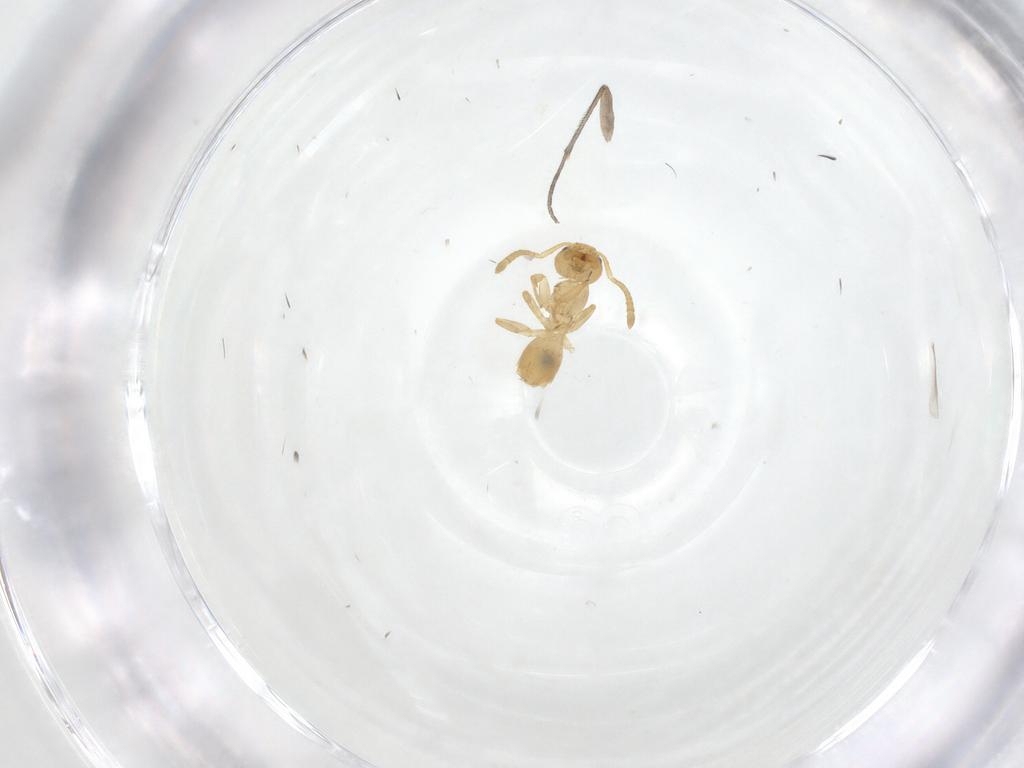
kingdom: Animalia
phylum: Arthropoda
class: Insecta
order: Hymenoptera
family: Formicidae
